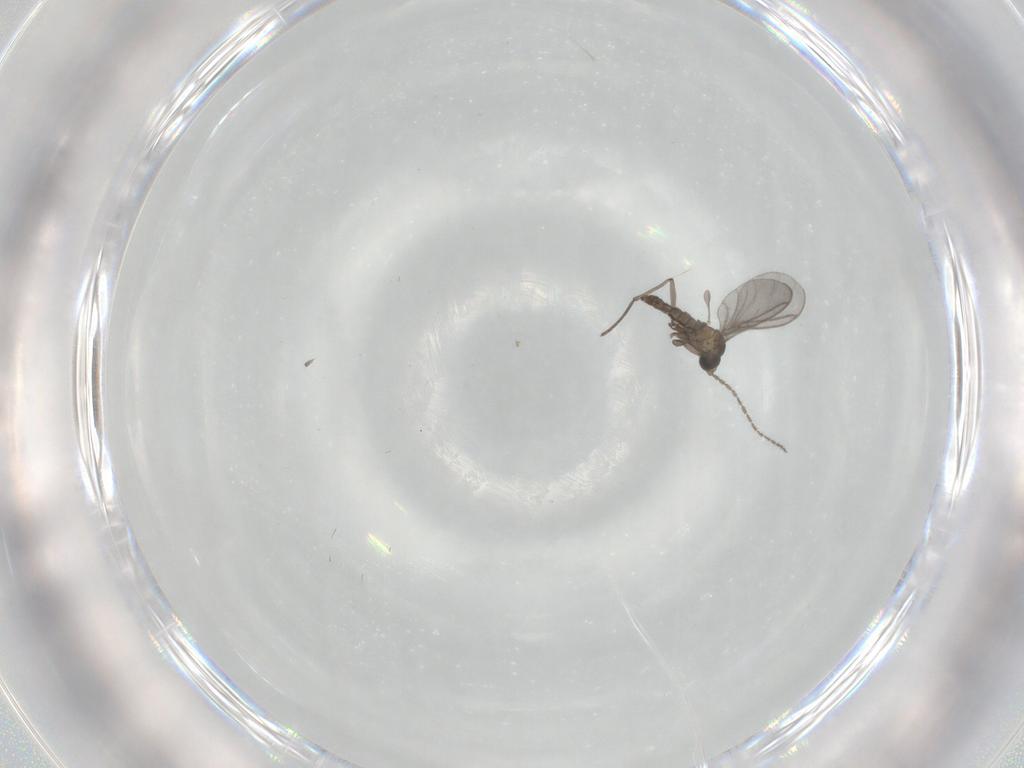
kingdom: Animalia
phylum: Arthropoda
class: Insecta
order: Diptera
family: Sciaridae
